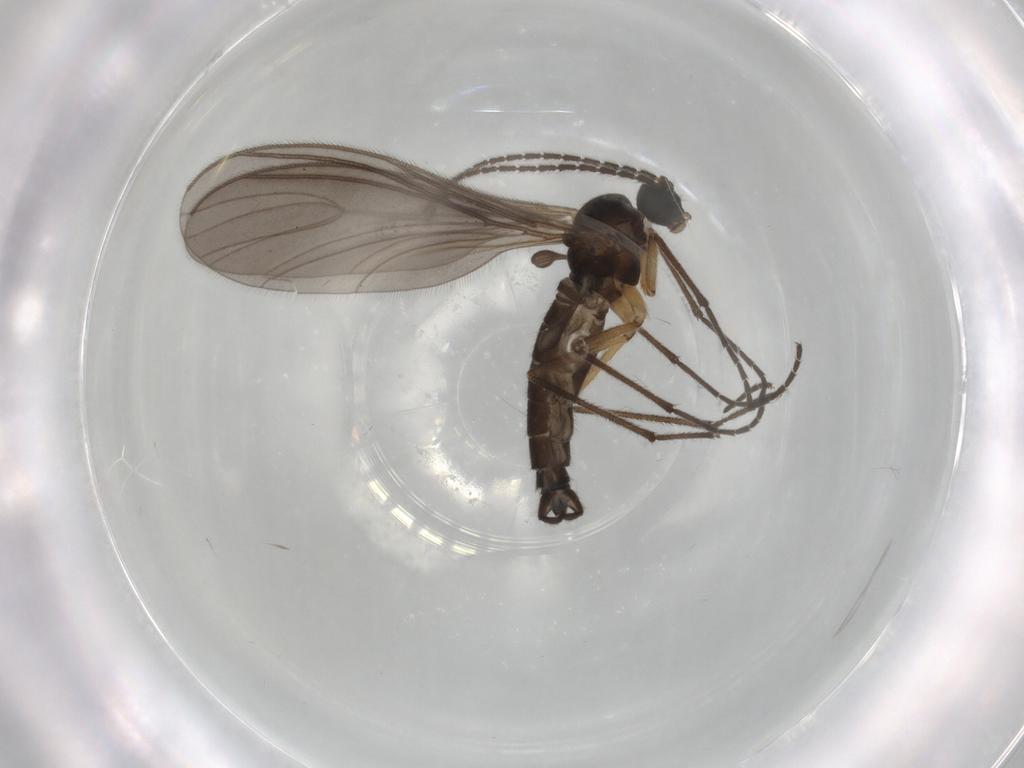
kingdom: Animalia
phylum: Arthropoda
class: Insecta
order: Diptera
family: Sciaridae
